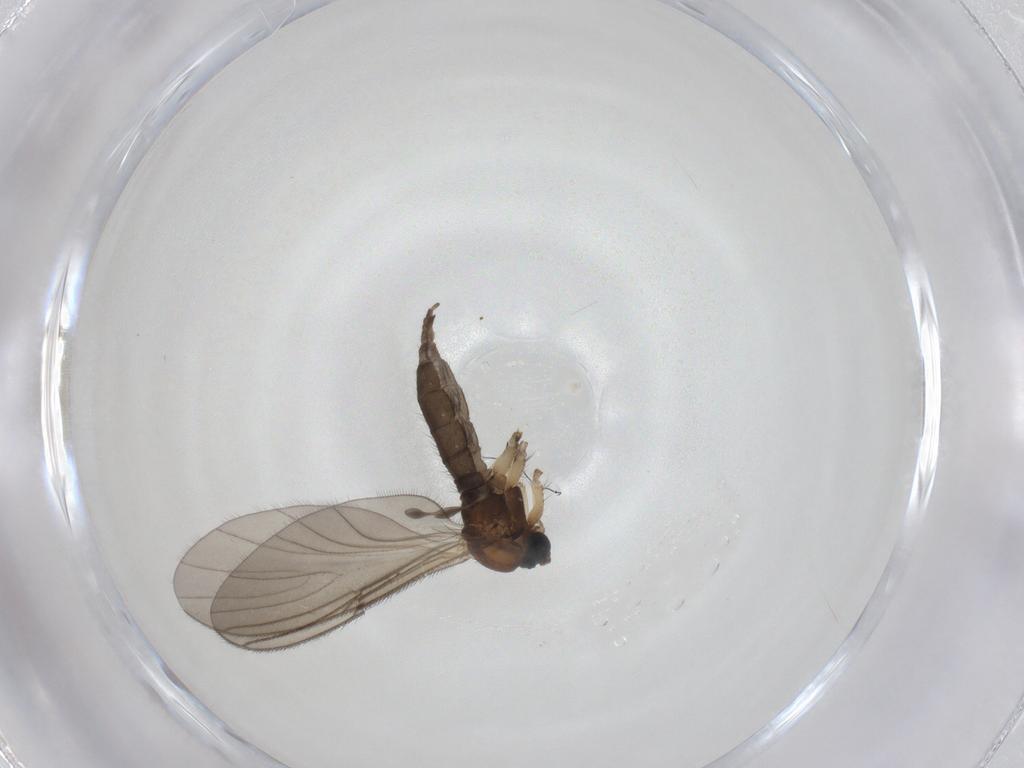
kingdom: Animalia
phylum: Arthropoda
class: Insecta
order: Diptera
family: Sciaridae
